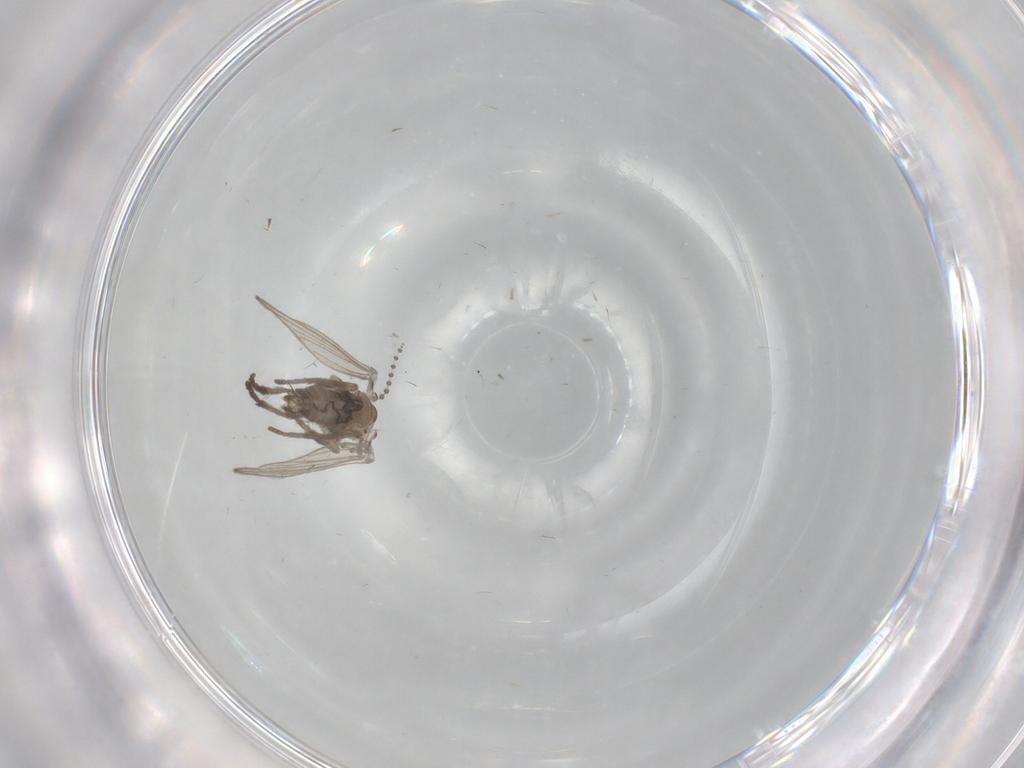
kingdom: Animalia
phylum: Arthropoda
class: Insecta
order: Diptera
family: Psychodidae
